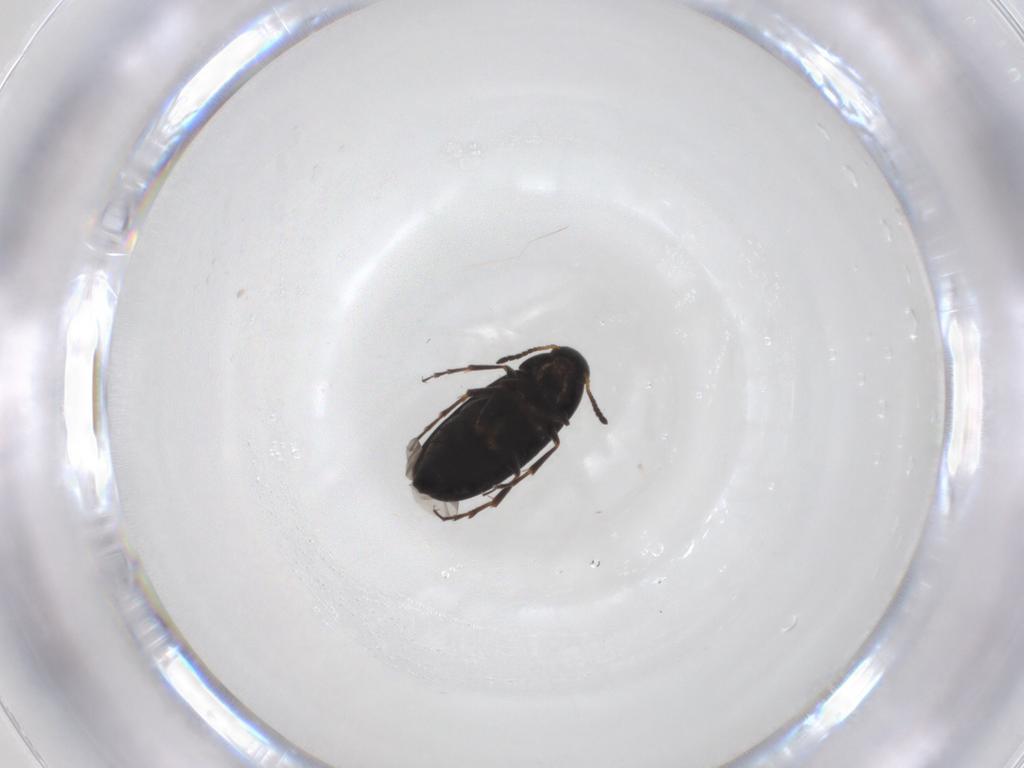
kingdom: Animalia
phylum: Arthropoda
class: Insecta
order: Coleoptera
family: Scraptiidae
